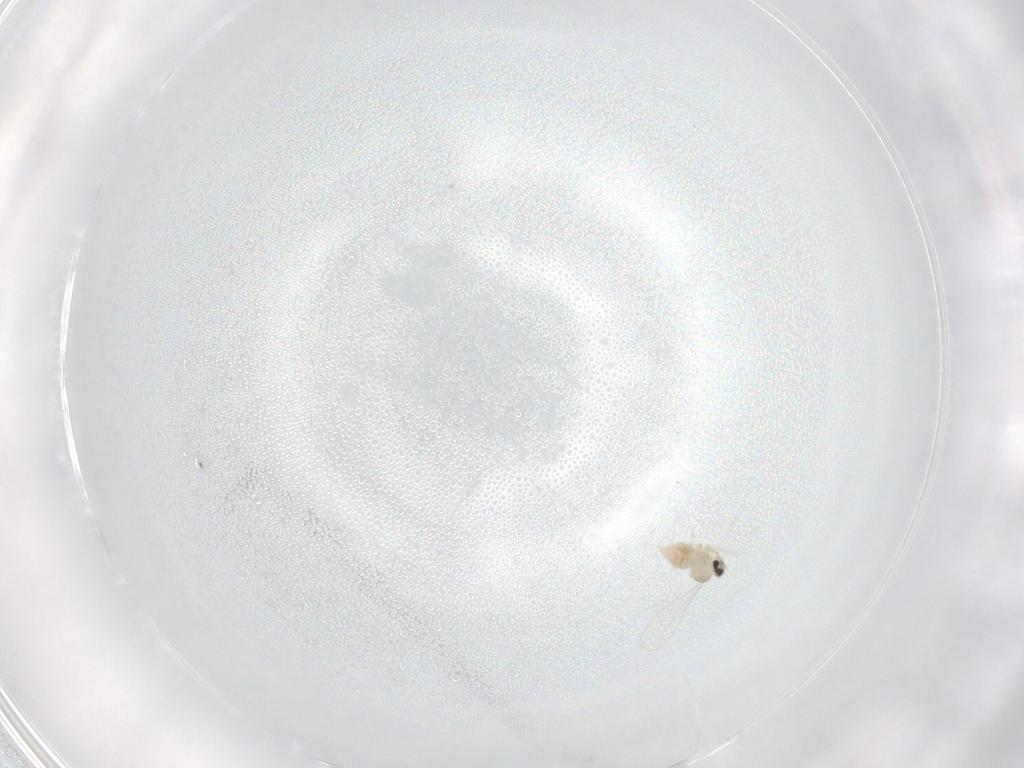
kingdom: Animalia
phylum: Arthropoda
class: Insecta
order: Diptera
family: Cecidomyiidae
